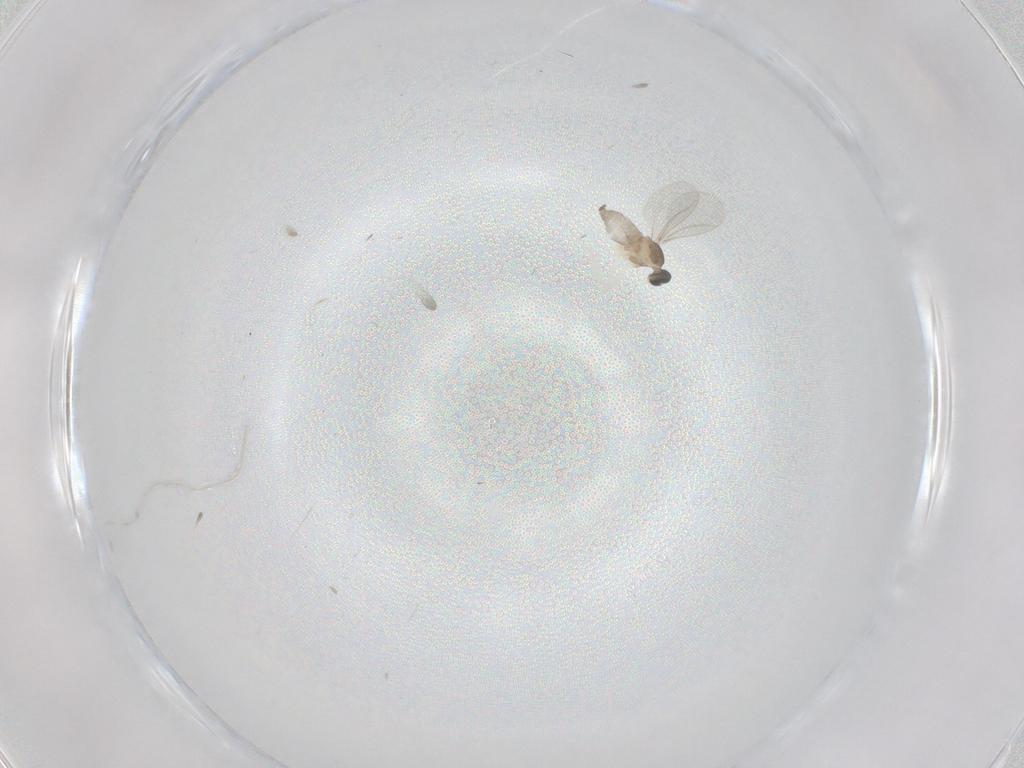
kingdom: Animalia
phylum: Arthropoda
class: Insecta
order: Diptera
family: Cecidomyiidae
